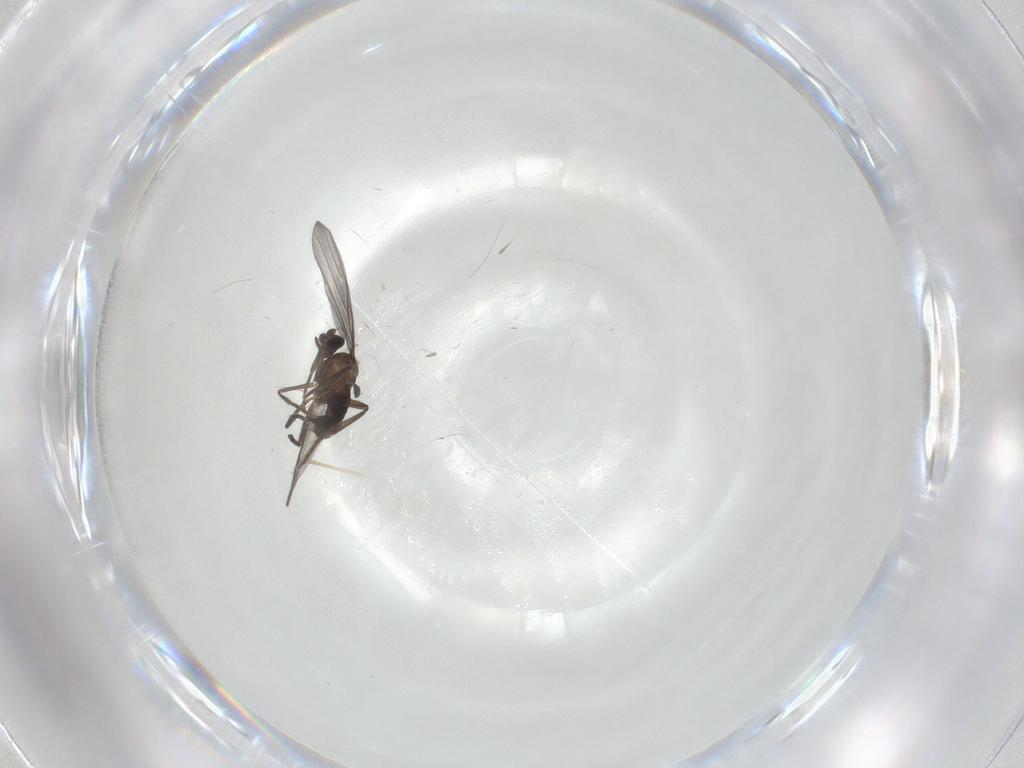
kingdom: Animalia
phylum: Arthropoda
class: Insecta
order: Diptera
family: Phoridae
